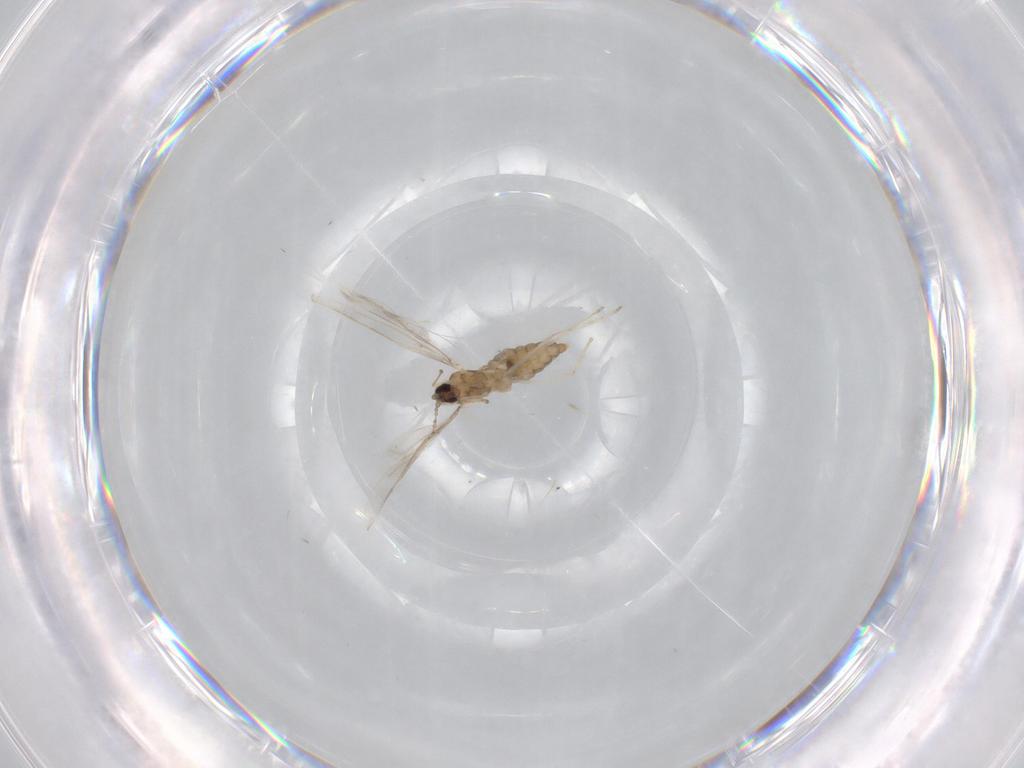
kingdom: Animalia
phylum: Arthropoda
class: Insecta
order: Diptera
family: Cecidomyiidae
